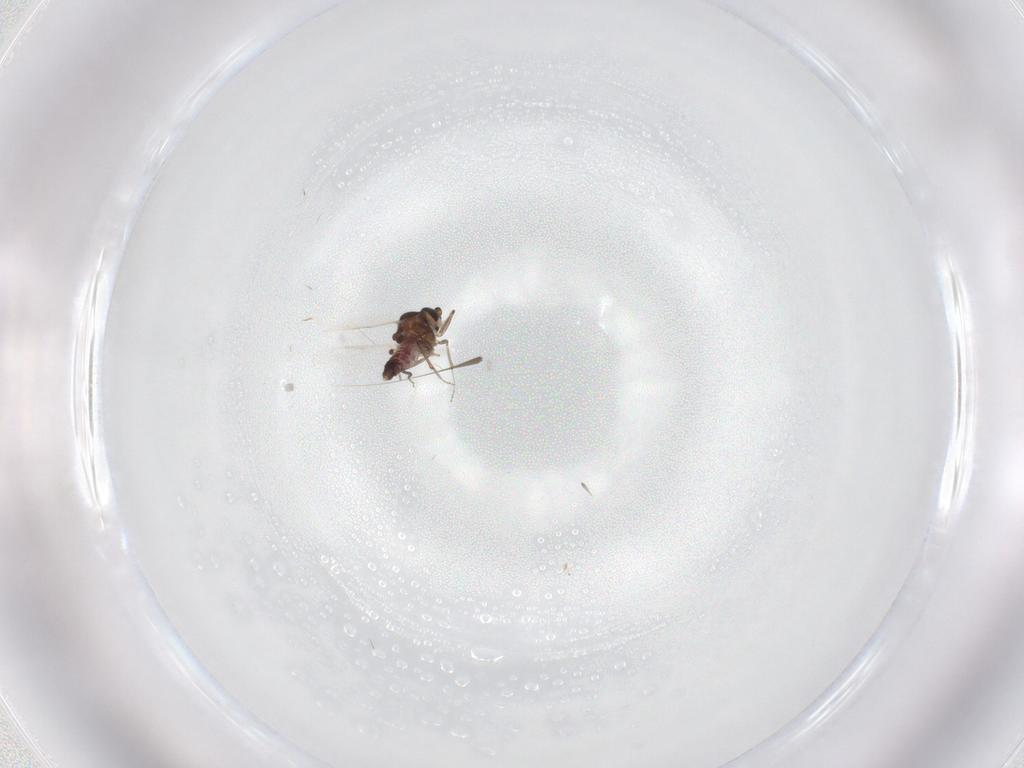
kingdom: Animalia
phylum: Arthropoda
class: Insecta
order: Diptera
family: Ceratopogonidae
